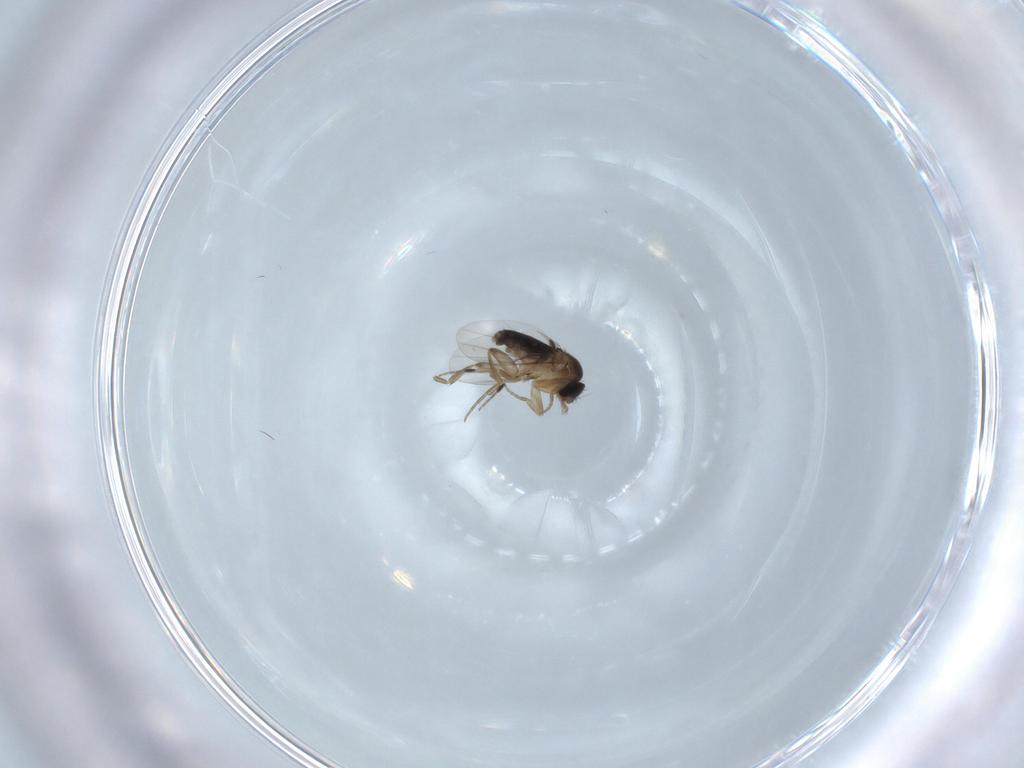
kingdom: Animalia
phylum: Arthropoda
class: Insecta
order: Diptera
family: Phoridae
